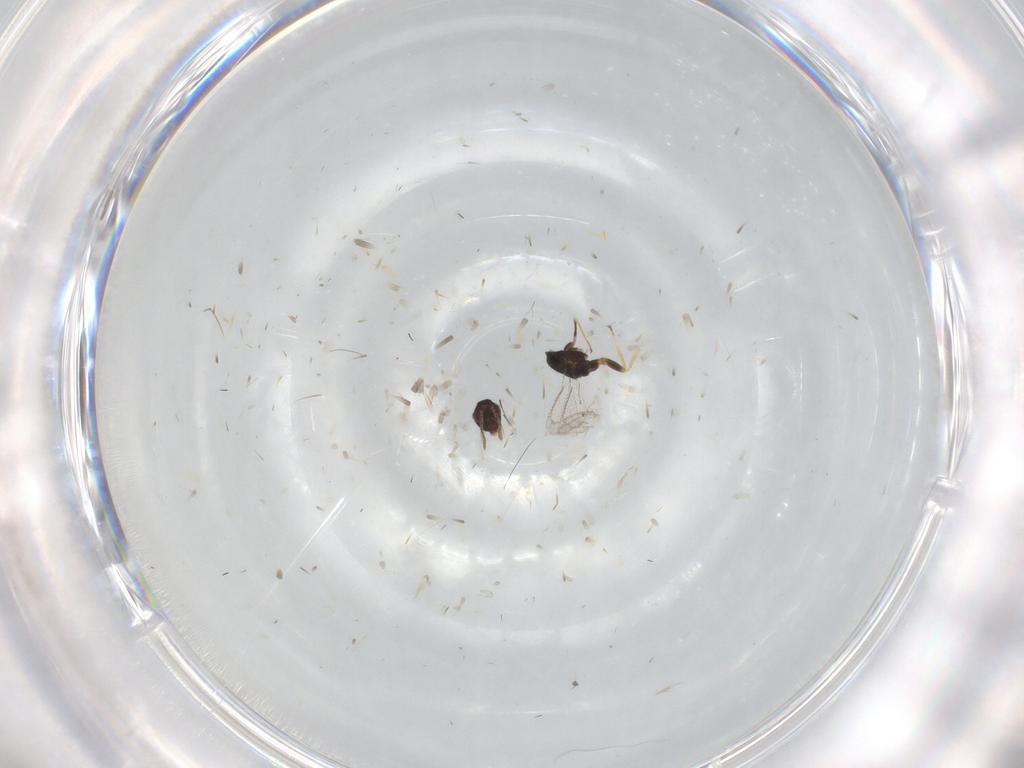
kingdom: Animalia
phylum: Arthropoda
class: Insecta
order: Hymenoptera
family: Eulophidae
